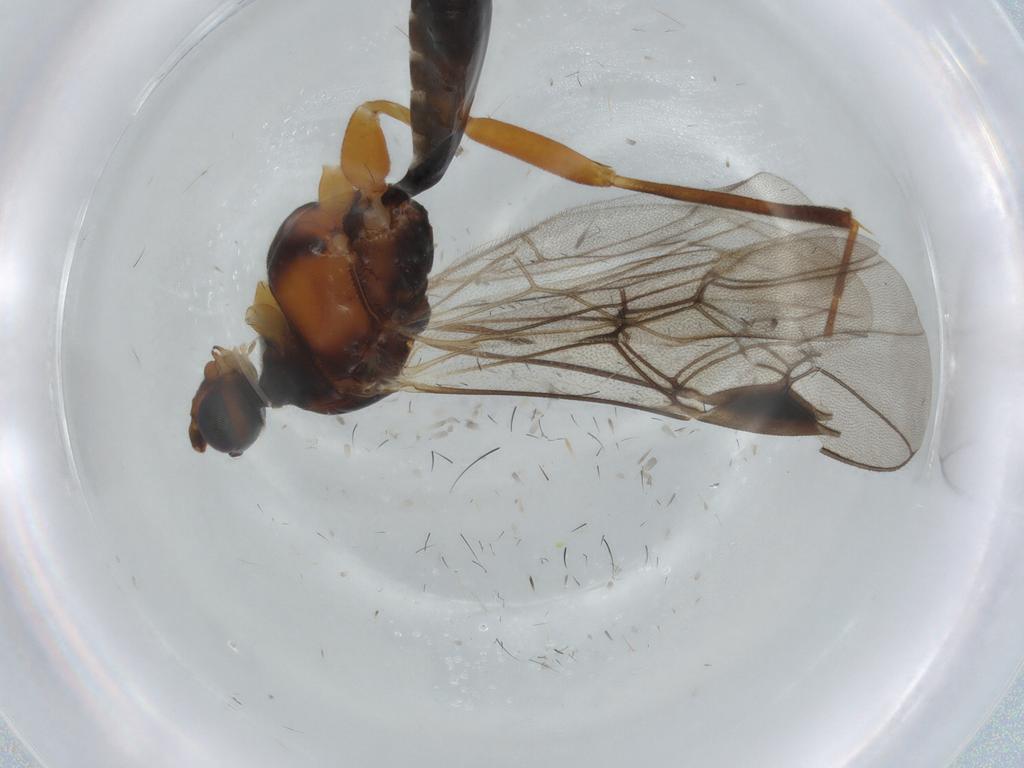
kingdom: Animalia
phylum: Arthropoda
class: Insecta
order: Hymenoptera
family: Braconidae
